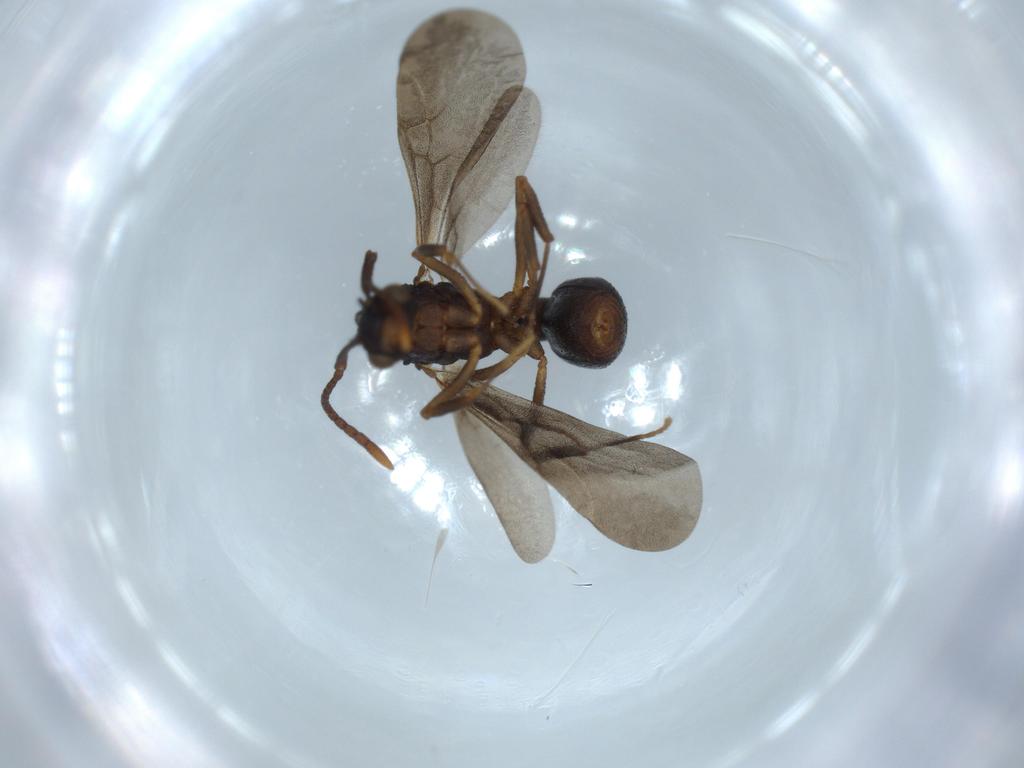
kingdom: Animalia
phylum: Arthropoda
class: Insecta
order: Hymenoptera
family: Formicidae
